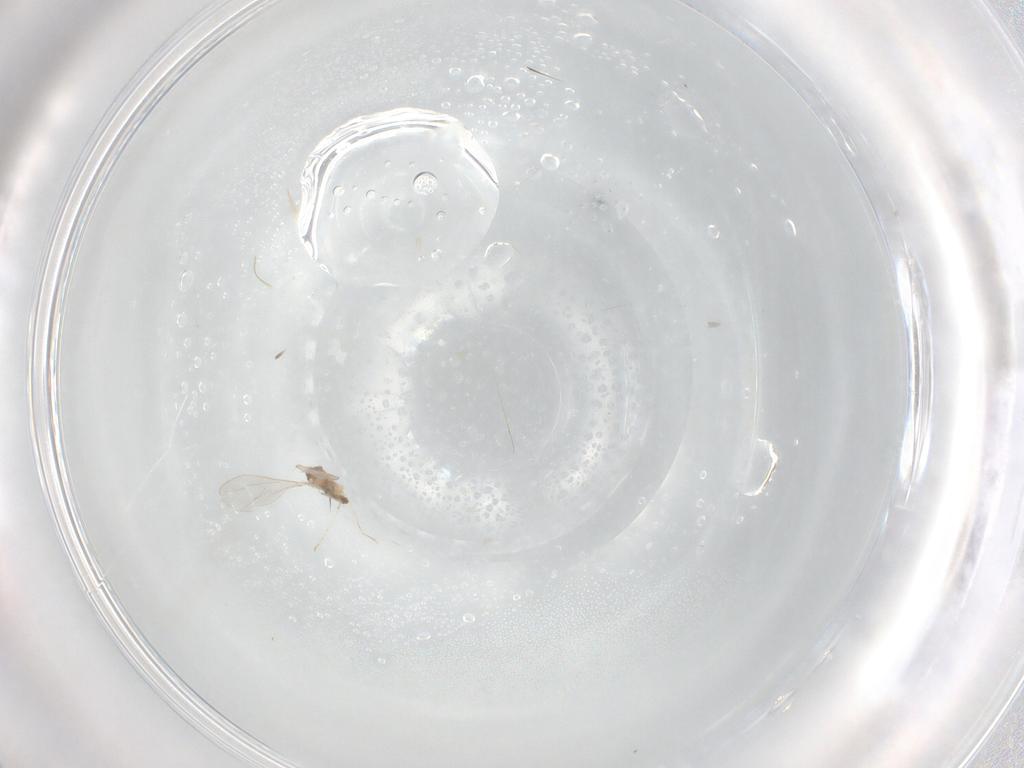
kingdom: Animalia
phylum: Arthropoda
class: Insecta
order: Diptera
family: Cecidomyiidae
